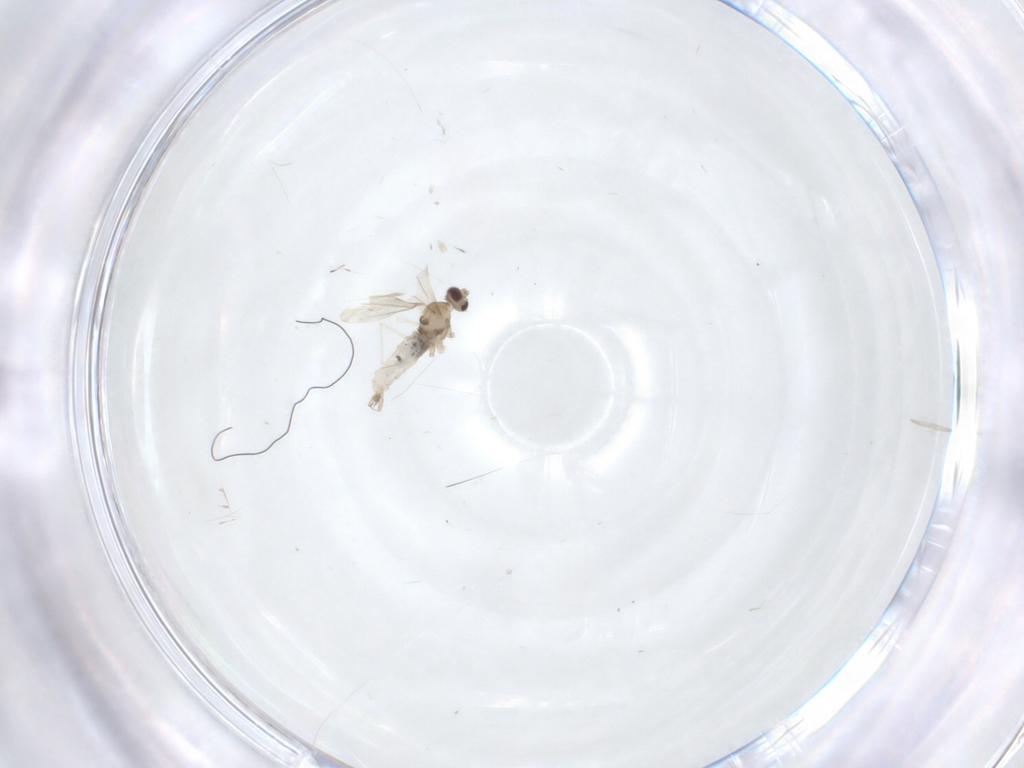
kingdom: Animalia
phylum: Arthropoda
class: Insecta
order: Diptera
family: Cecidomyiidae
